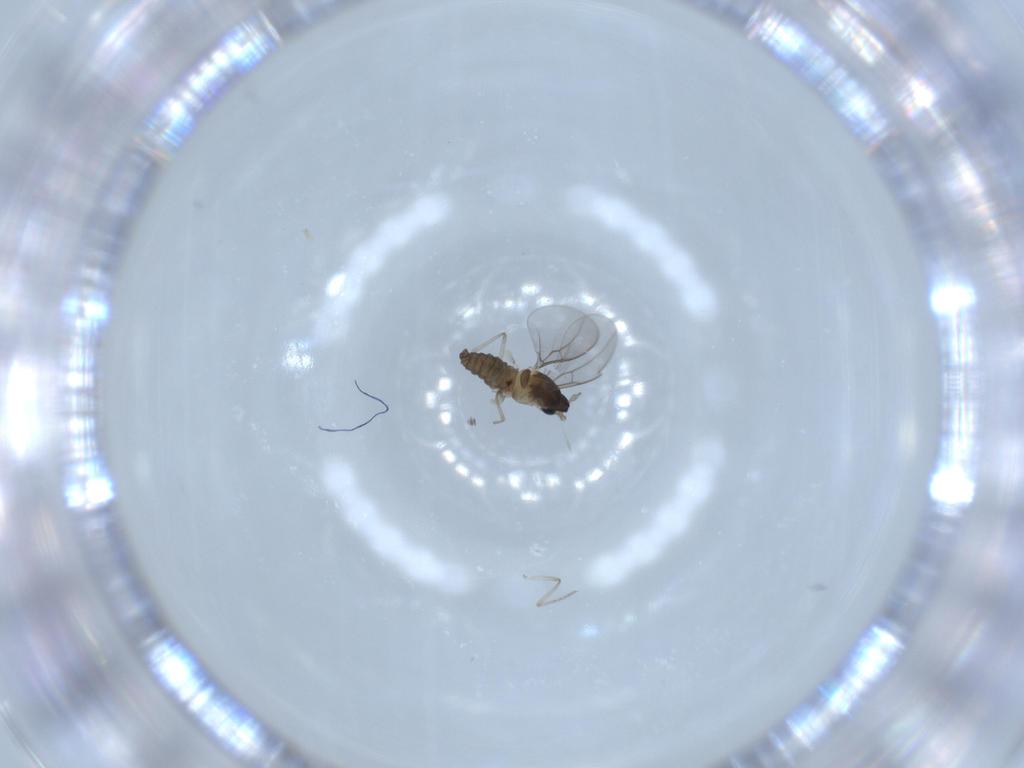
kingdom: Animalia
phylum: Arthropoda
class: Insecta
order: Diptera
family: Cecidomyiidae
